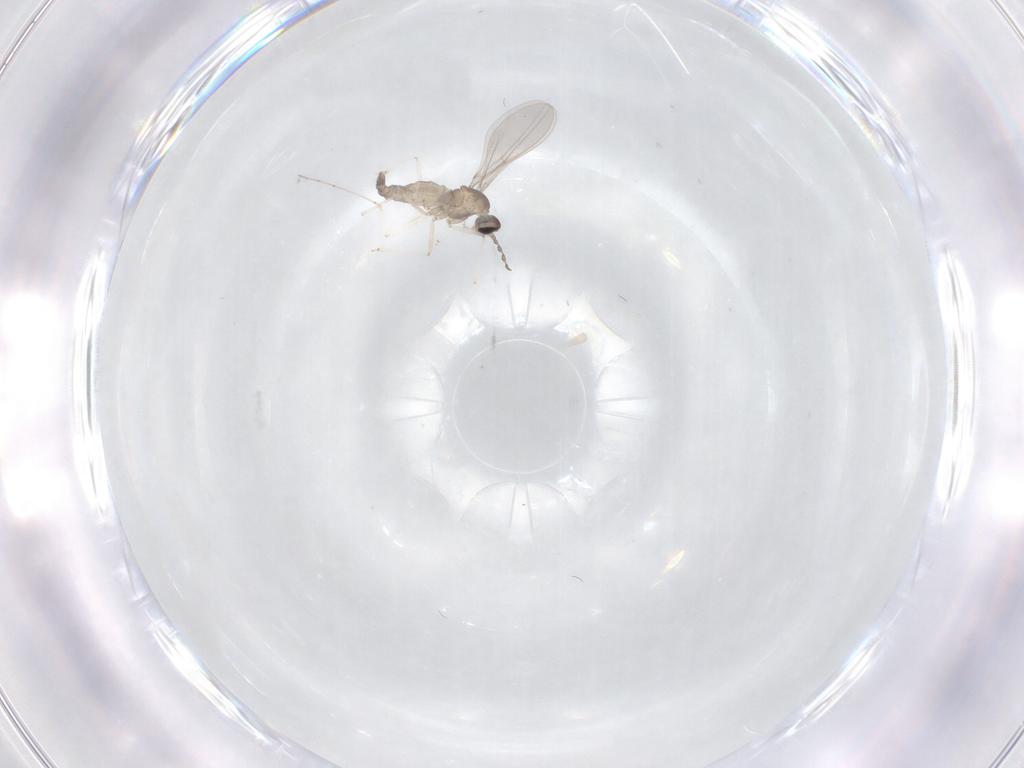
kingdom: Animalia
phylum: Arthropoda
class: Insecta
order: Diptera
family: Cecidomyiidae
